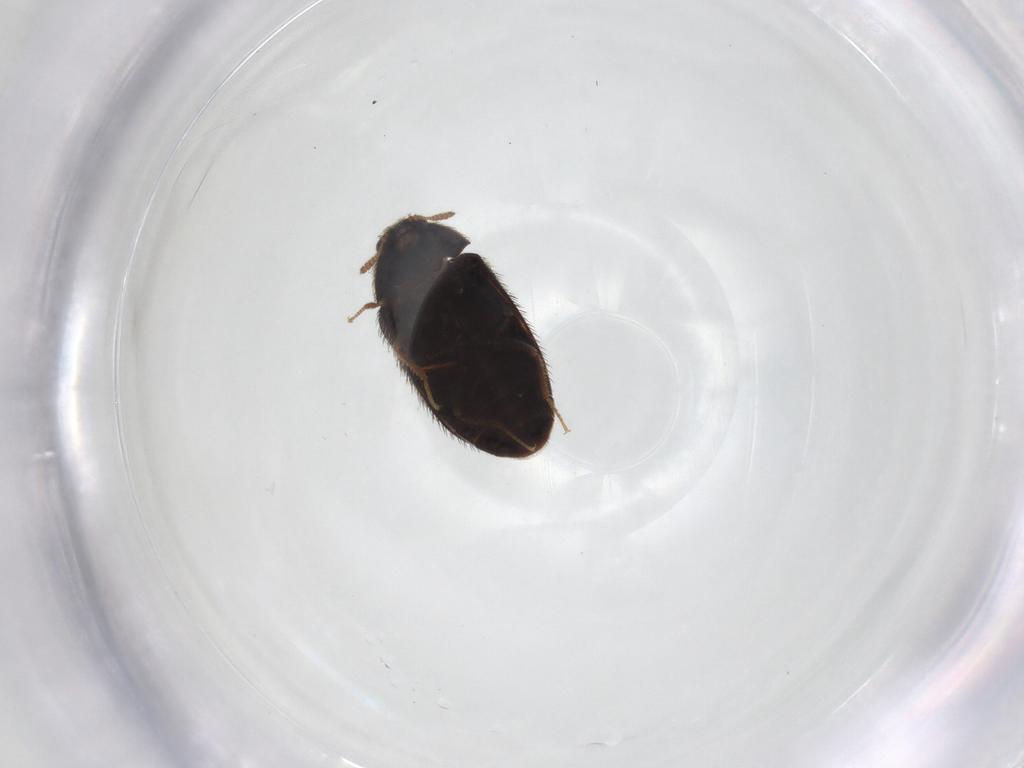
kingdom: Animalia
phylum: Arthropoda
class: Insecta
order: Coleoptera
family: Dermestidae
